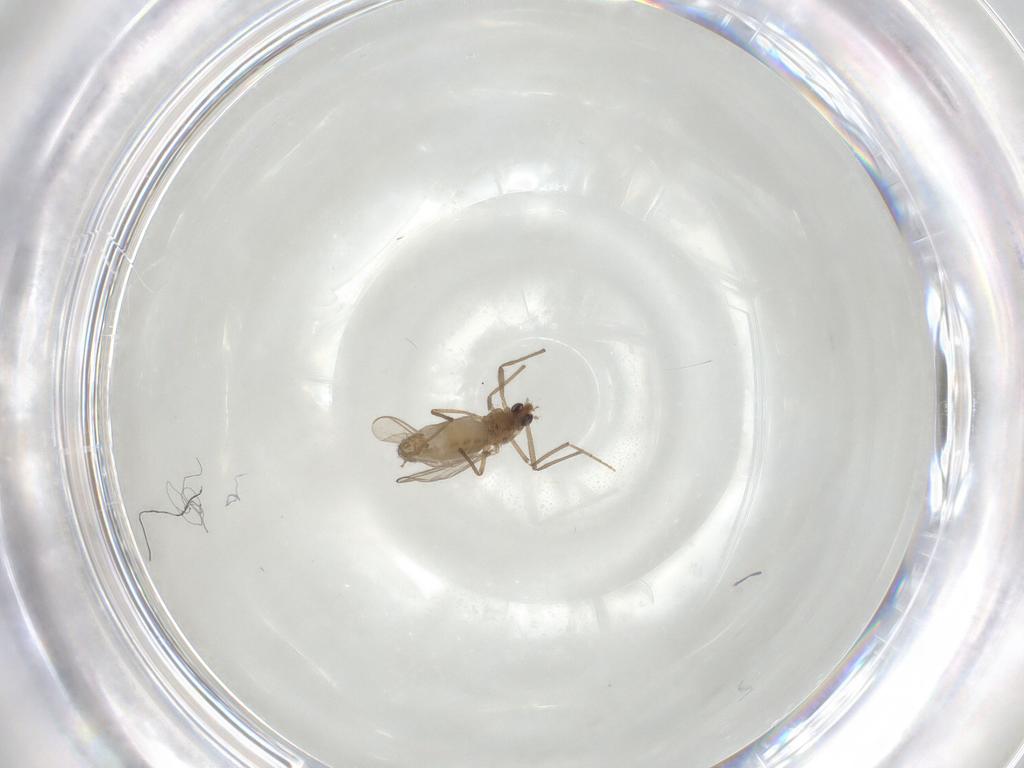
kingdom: Animalia
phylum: Arthropoda
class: Insecta
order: Diptera
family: Chironomidae
